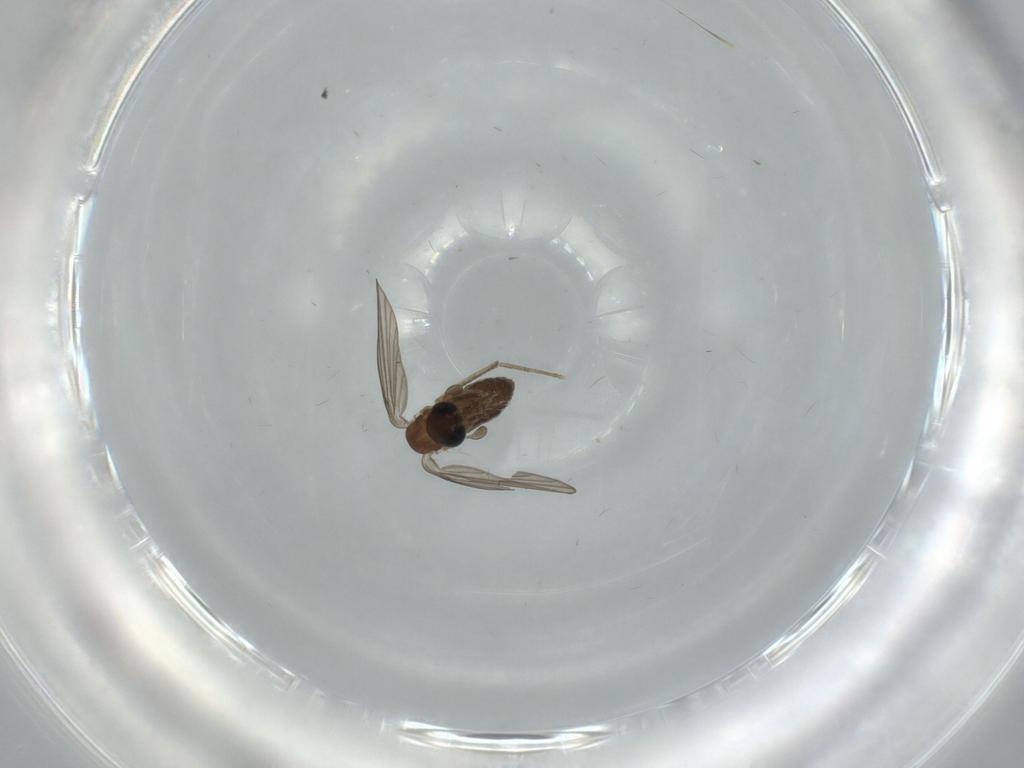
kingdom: Animalia
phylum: Arthropoda
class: Insecta
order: Diptera
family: Psychodidae
